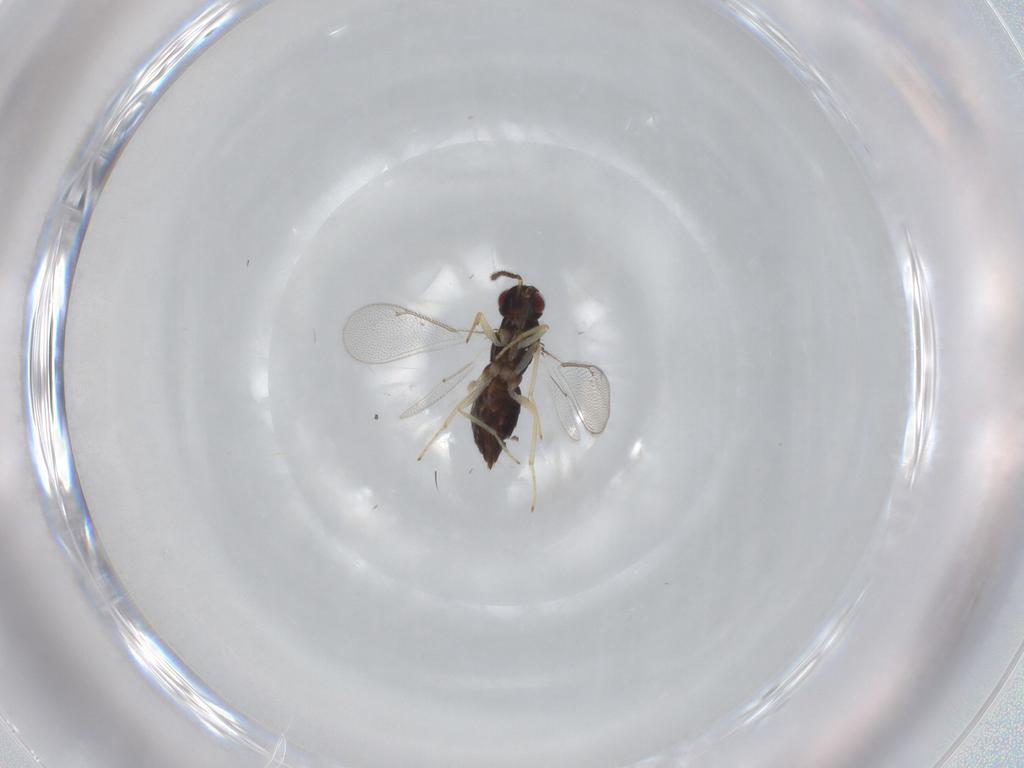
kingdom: Animalia
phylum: Arthropoda
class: Insecta
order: Hymenoptera
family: Eulophidae
